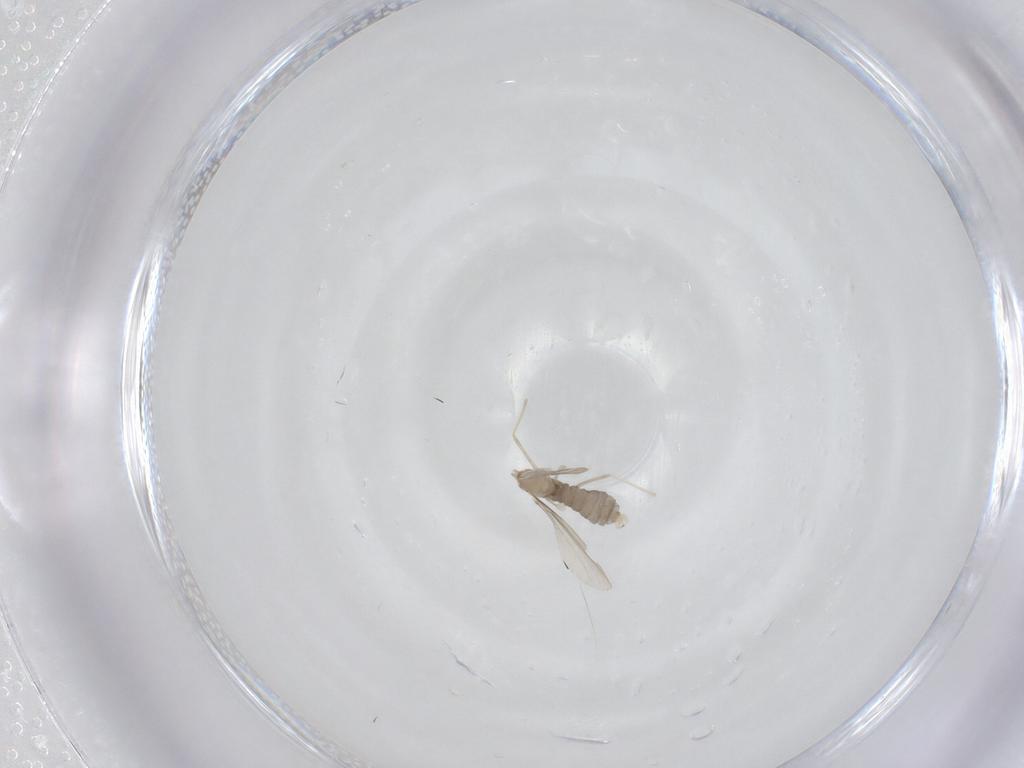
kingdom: Animalia
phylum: Arthropoda
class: Insecta
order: Diptera
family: Cecidomyiidae
